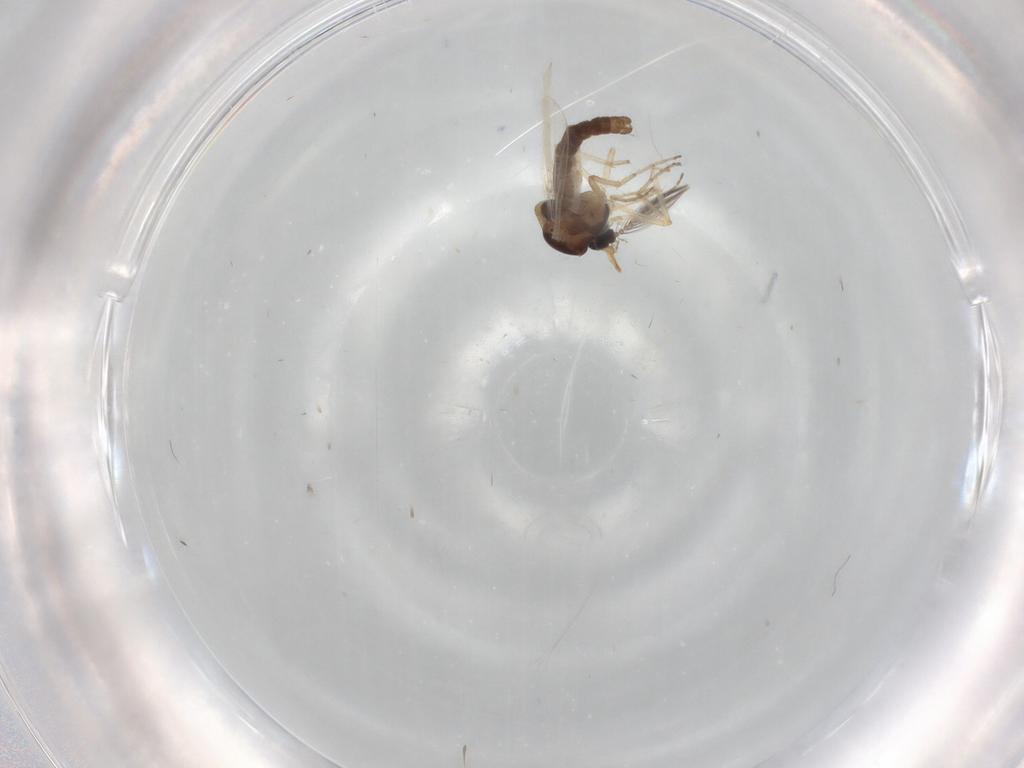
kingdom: Animalia
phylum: Arthropoda
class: Insecta
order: Diptera
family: Ceratopogonidae
